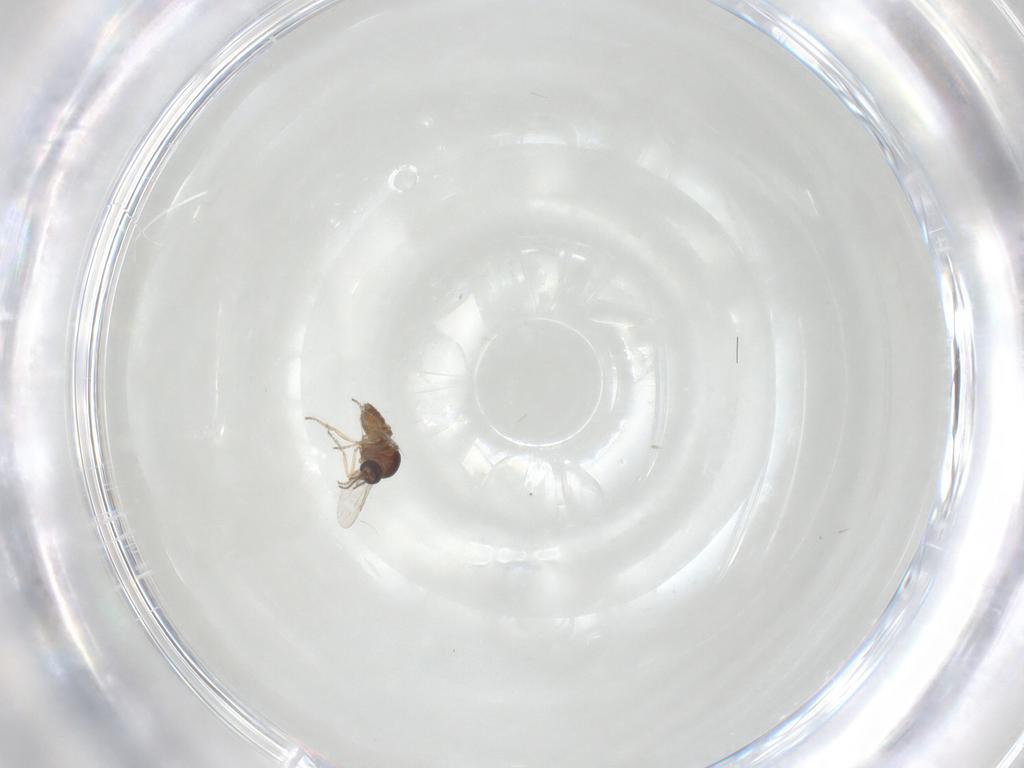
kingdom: Animalia
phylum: Arthropoda
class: Insecta
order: Diptera
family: Ceratopogonidae
